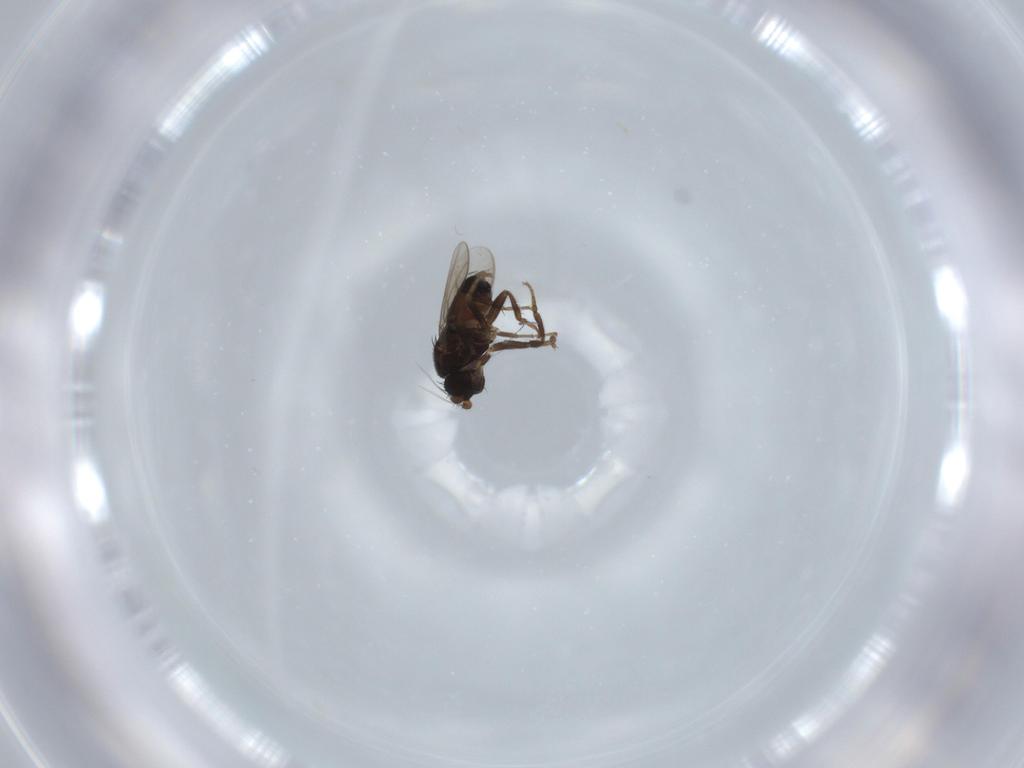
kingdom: Animalia
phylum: Arthropoda
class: Insecta
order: Diptera
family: Sphaeroceridae
